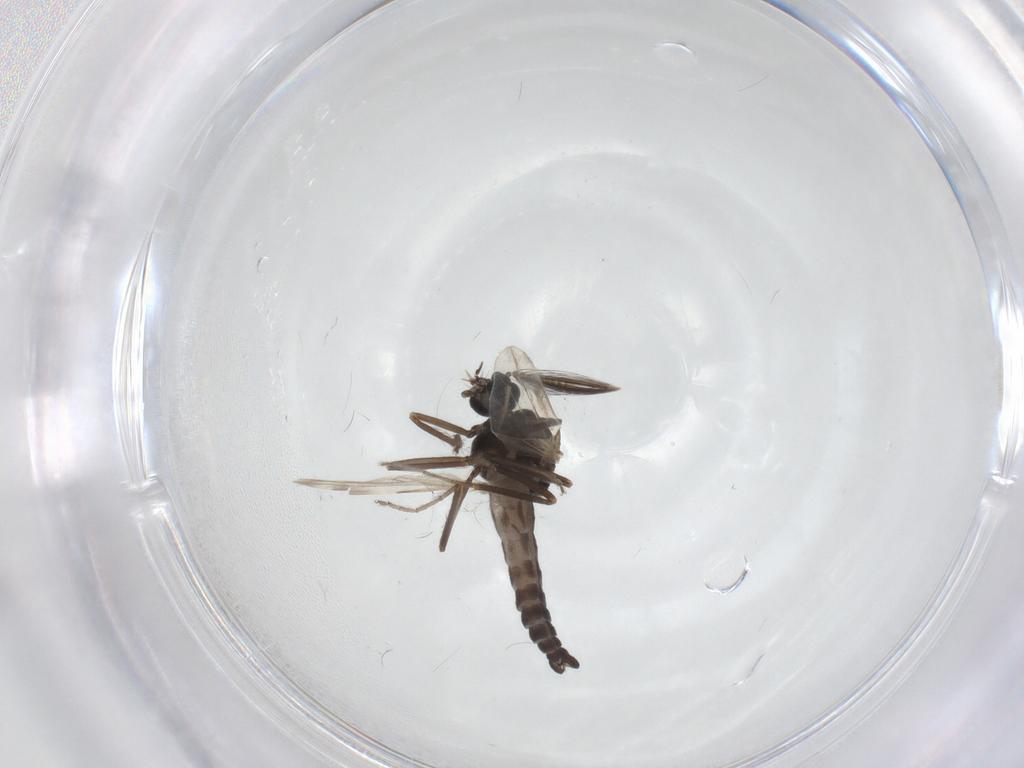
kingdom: Animalia
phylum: Arthropoda
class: Insecta
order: Diptera
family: Ceratopogonidae
